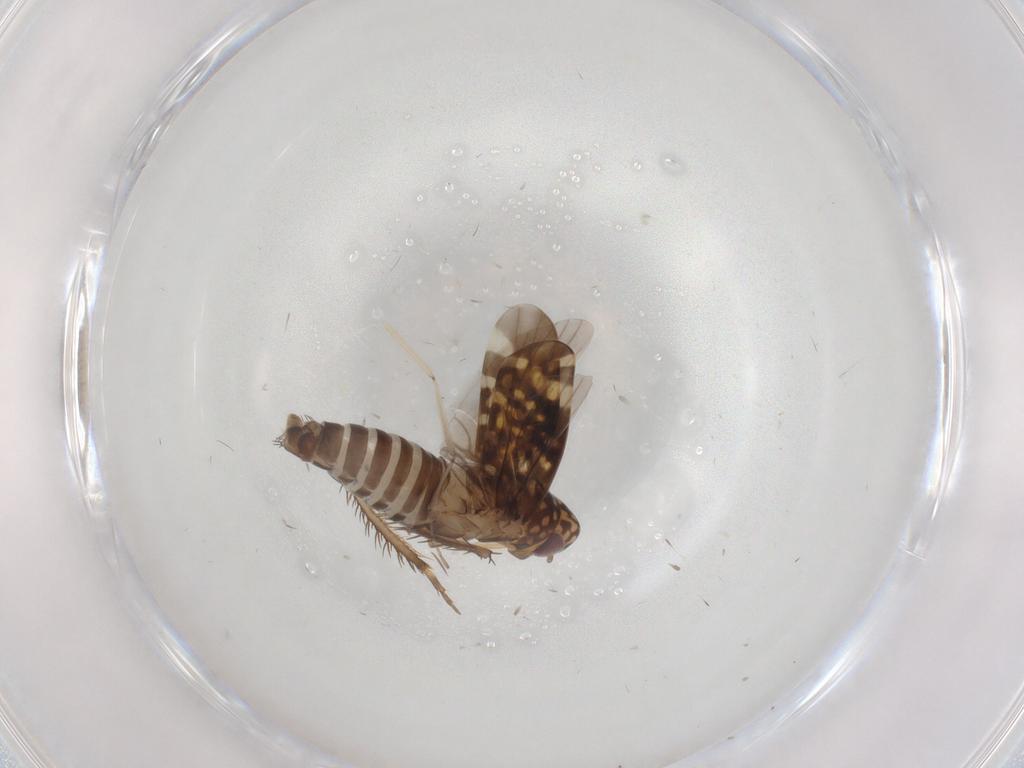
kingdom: Animalia
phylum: Arthropoda
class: Insecta
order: Hemiptera
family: Cicadellidae
